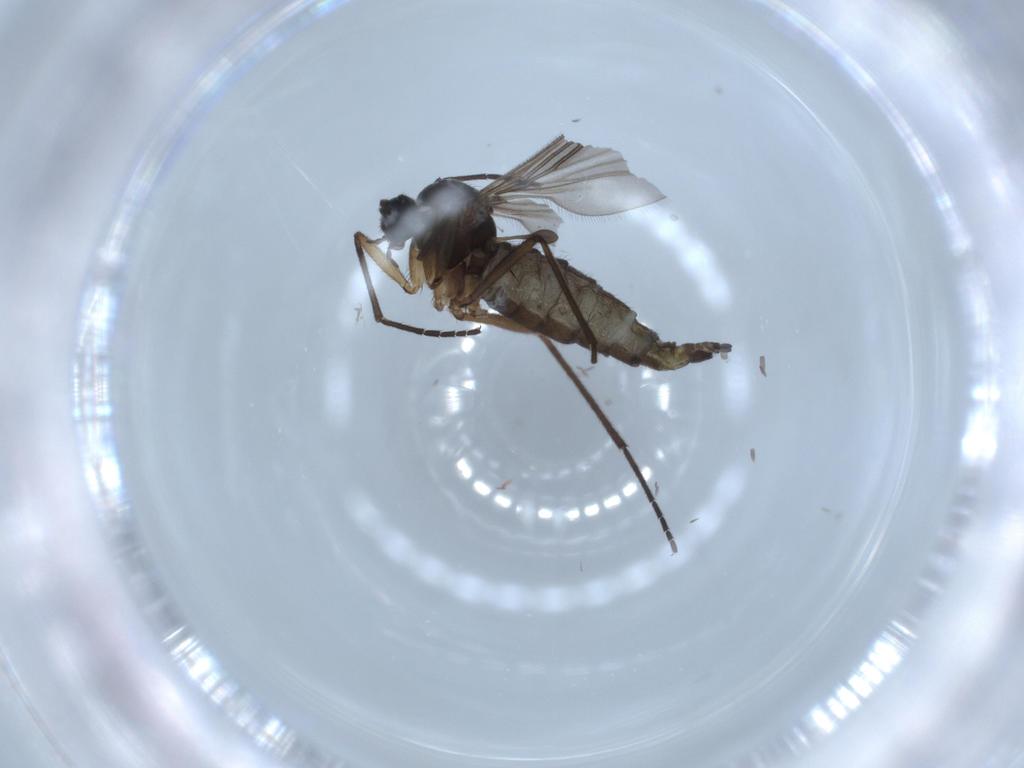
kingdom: Animalia
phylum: Arthropoda
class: Insecta
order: Diptera
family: Sciaridae
